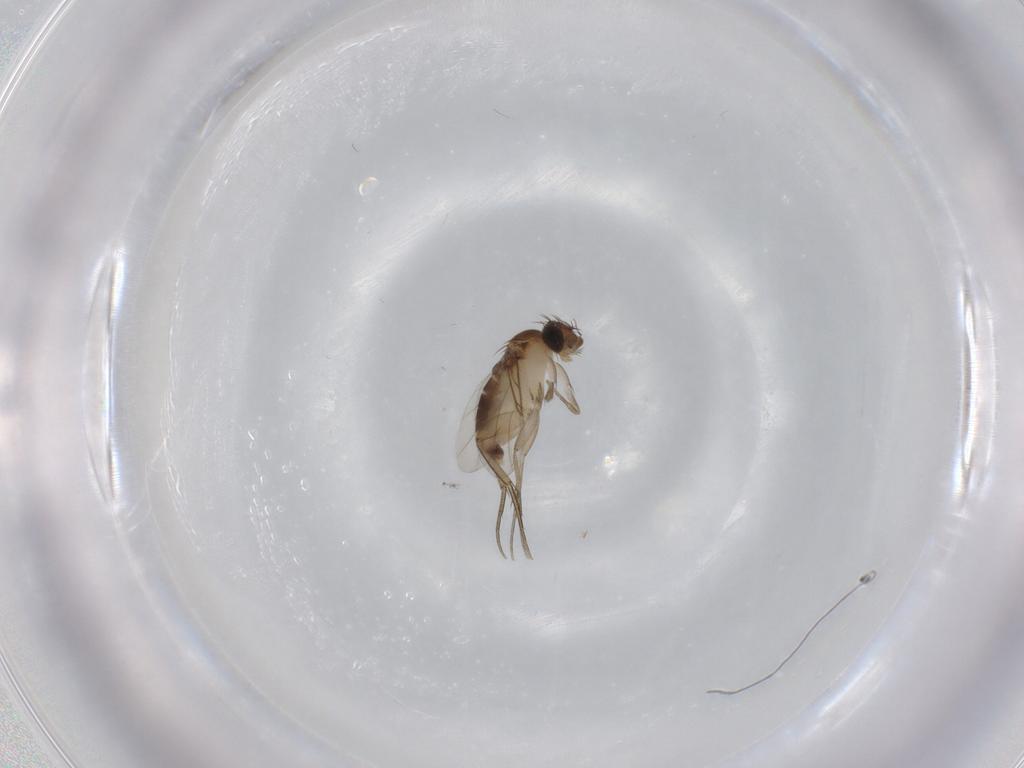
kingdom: Animalia
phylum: Arthropoda
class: Insecta
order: Diptera
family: Phoridae
